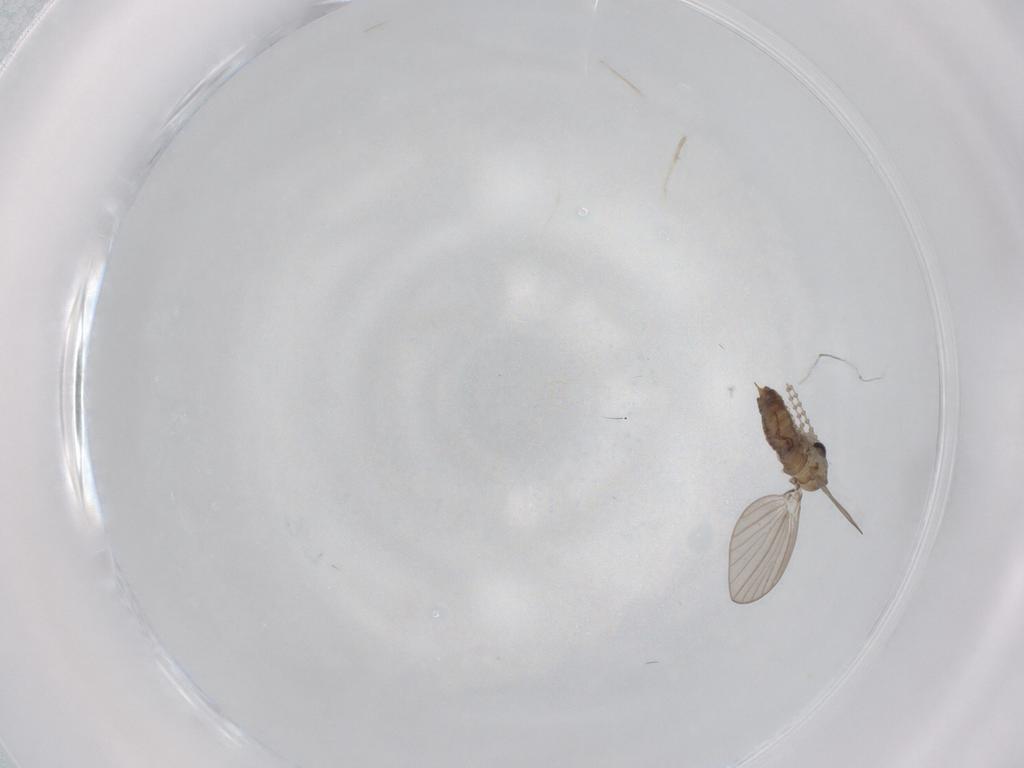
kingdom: Animalia
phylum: Arthropoda
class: Insecta
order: Diptera
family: Psychodidae
